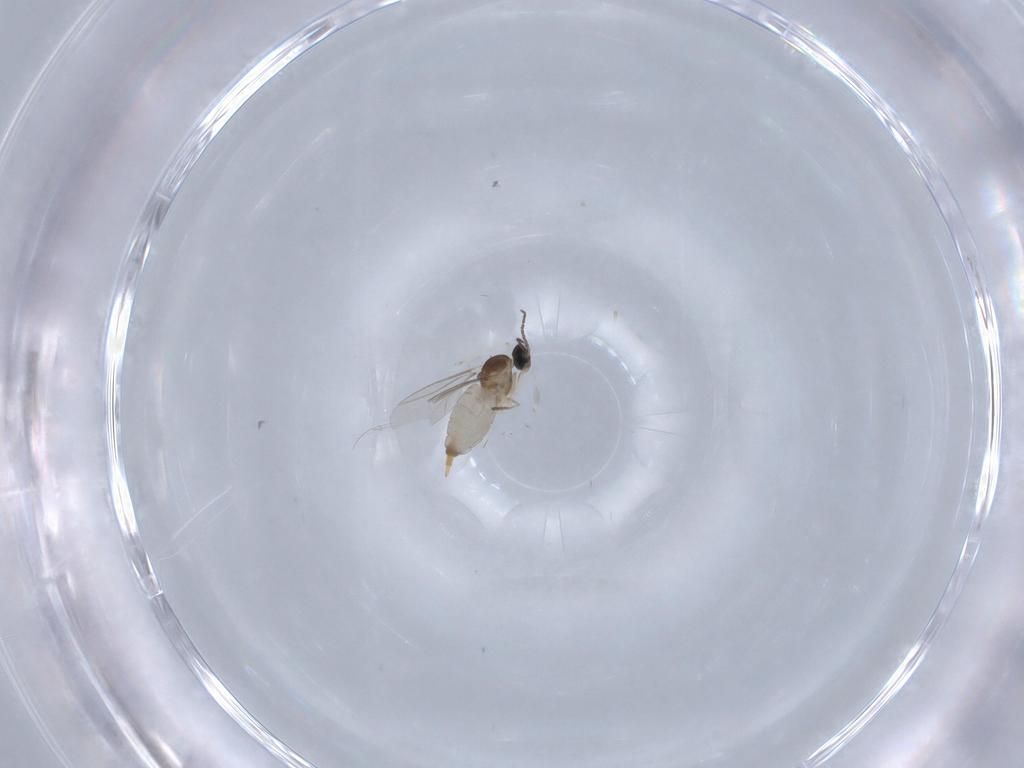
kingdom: Animalia
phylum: Arthropoda
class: Insecta
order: Diptera
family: Cecidomyiidae
